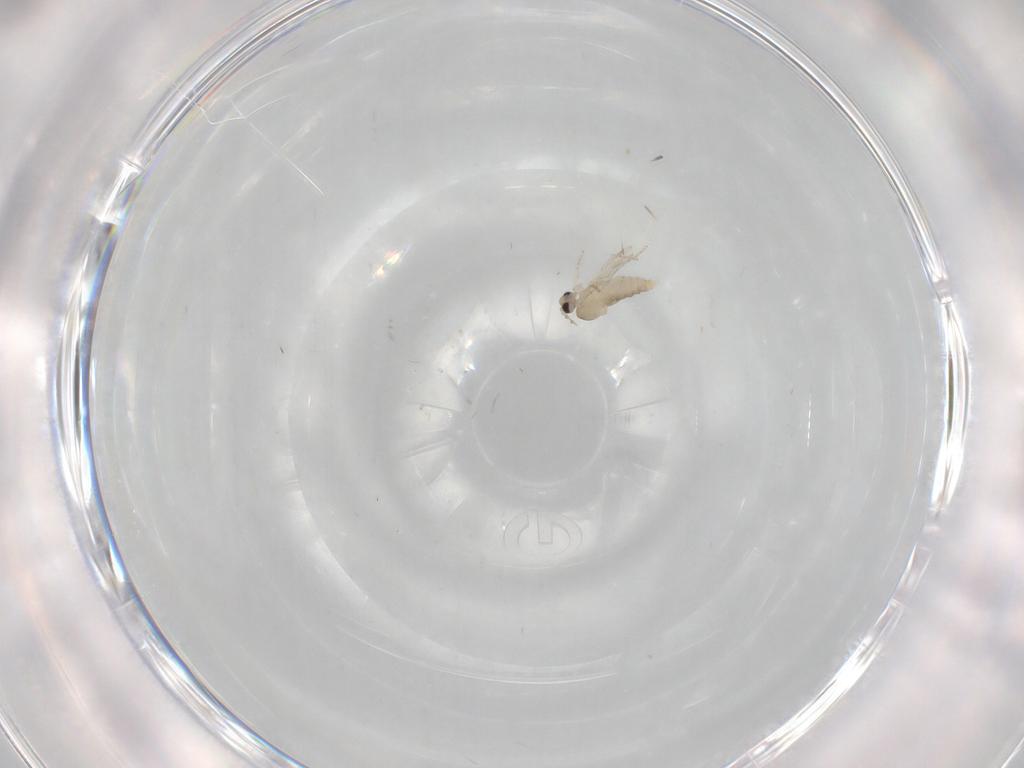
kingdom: Animalia
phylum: Arthropoda
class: Insecta
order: Diptera
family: Cecidomyiidae
